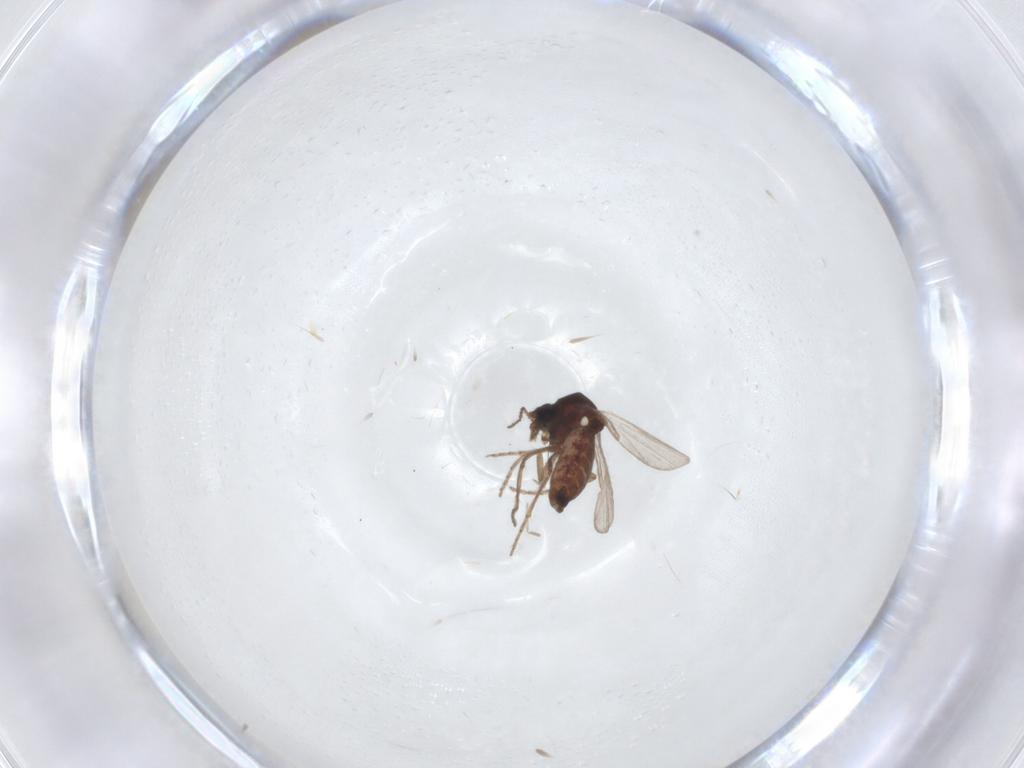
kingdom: Animalia
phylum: Arthropoda
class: Insecta
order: Diptera
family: Ceratopogonidae
